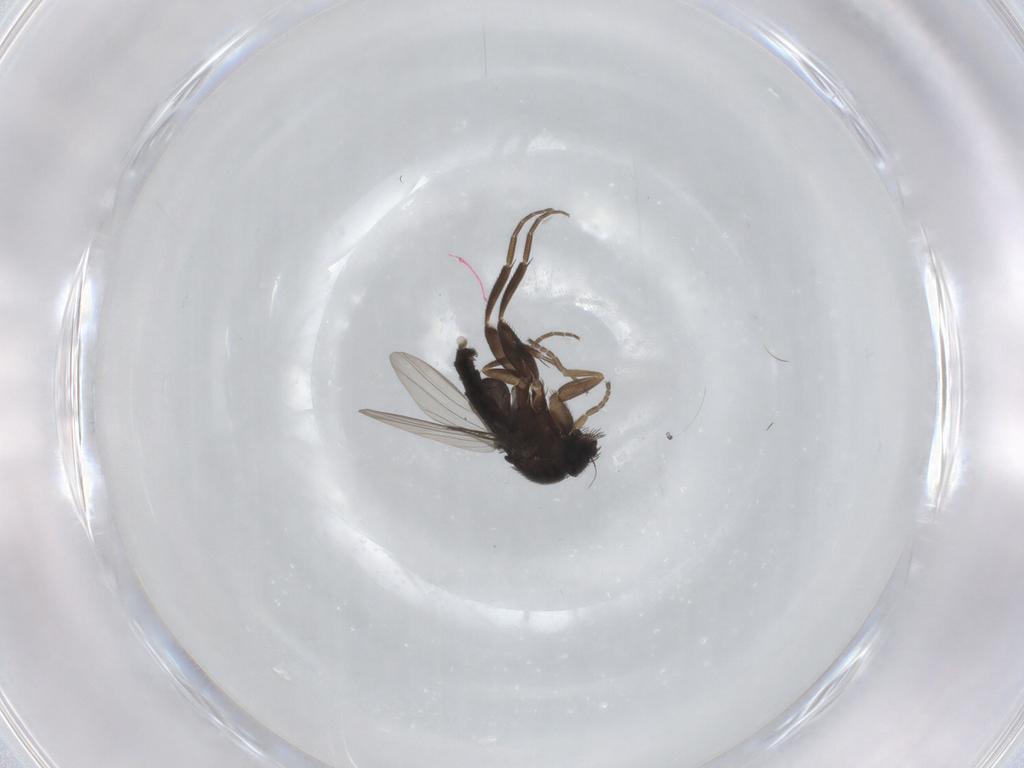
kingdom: Animalia
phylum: Arthropoda
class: Insecta
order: Diptera
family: Phoridae
